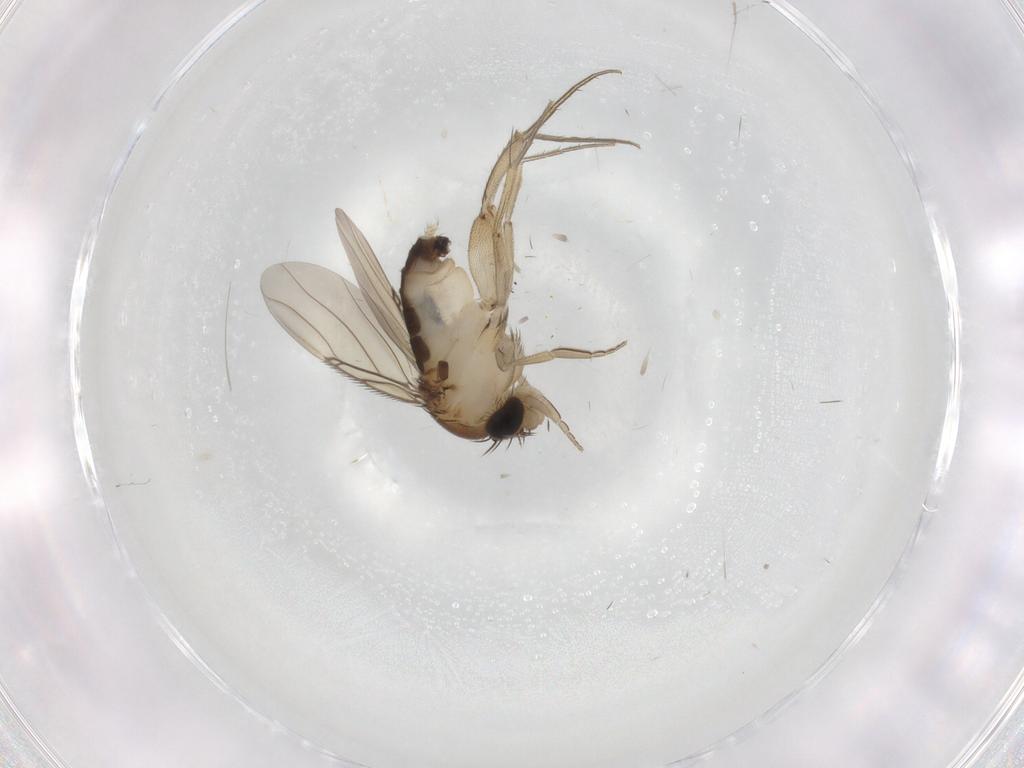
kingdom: Animalia
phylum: Arthropoda
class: Insecta
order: Diptera
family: Phoridae
